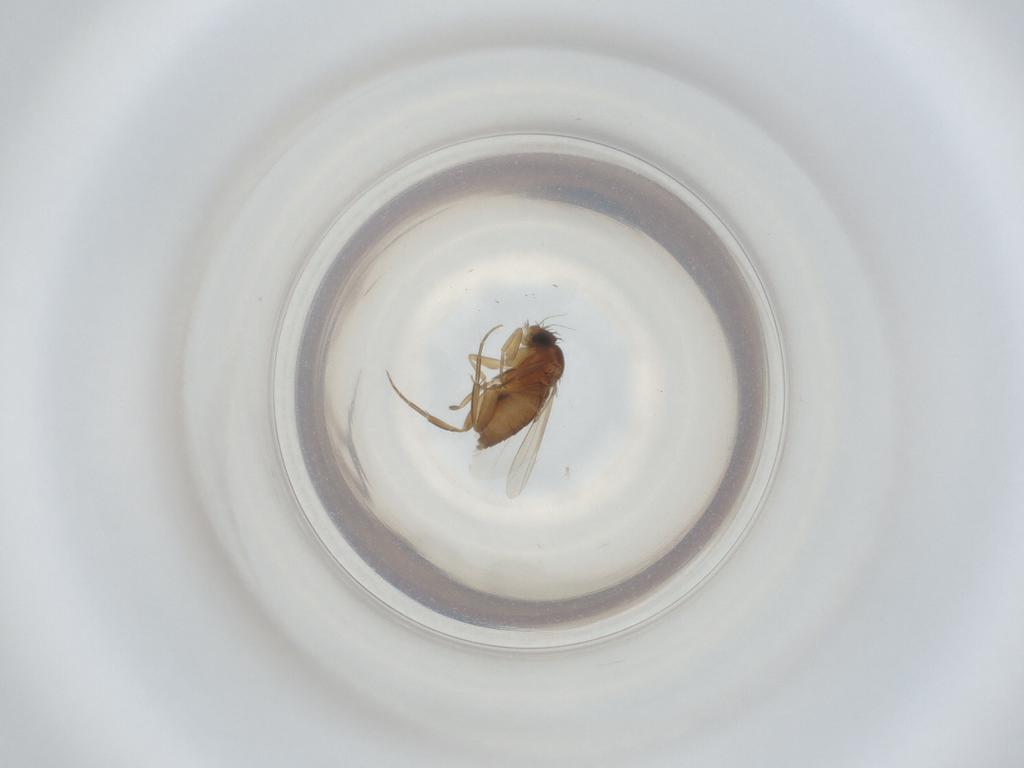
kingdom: Animalia
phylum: Arthropoda
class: Insecta
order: Diptera
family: Phoridae
